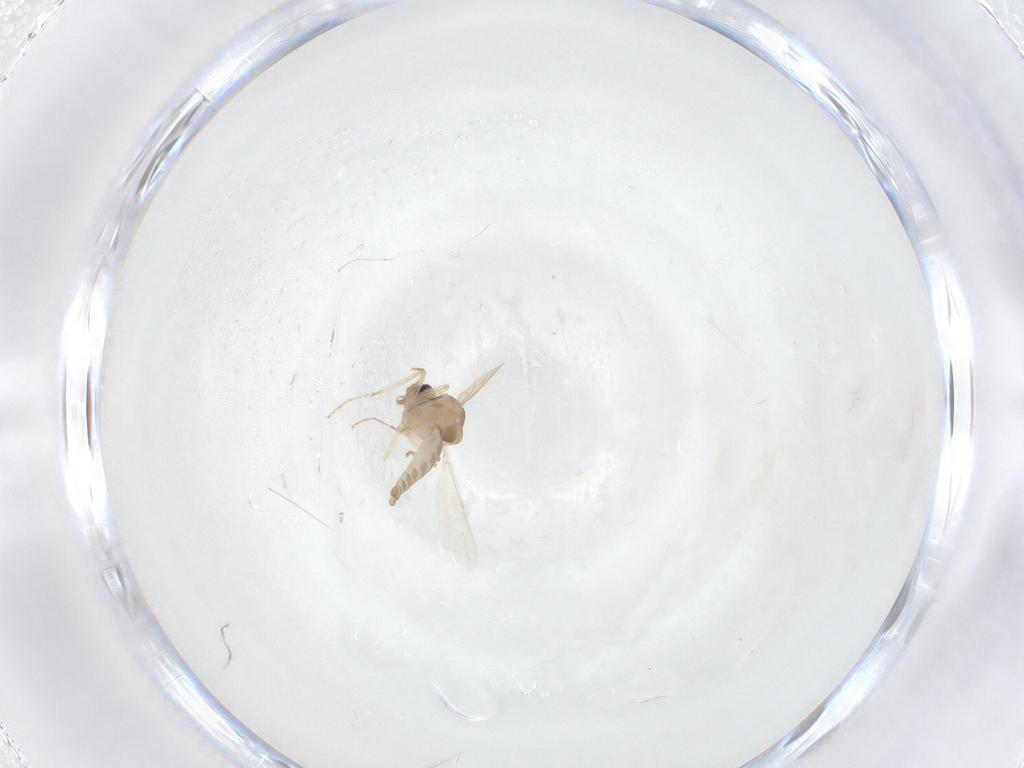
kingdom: Animalia
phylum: Arthropoda
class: Insecta
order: Diptera
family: Ceratopogonidae
